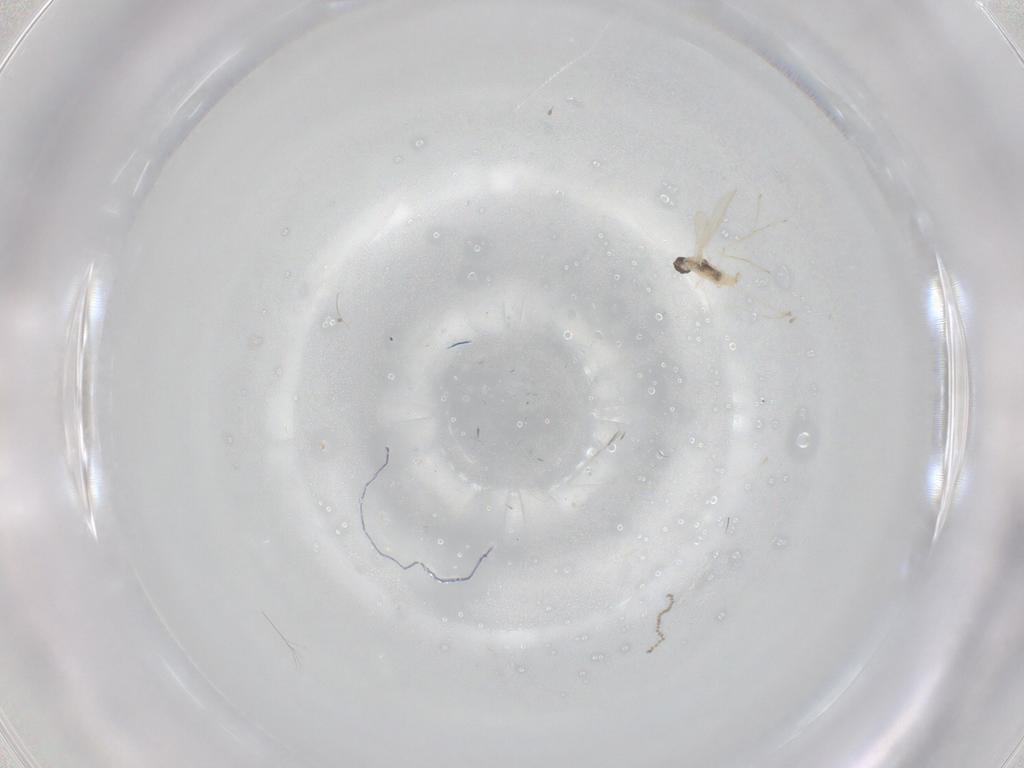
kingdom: Animalia
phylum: Arthropoda
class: Insecta
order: Diptera
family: Cecidomyiidae
